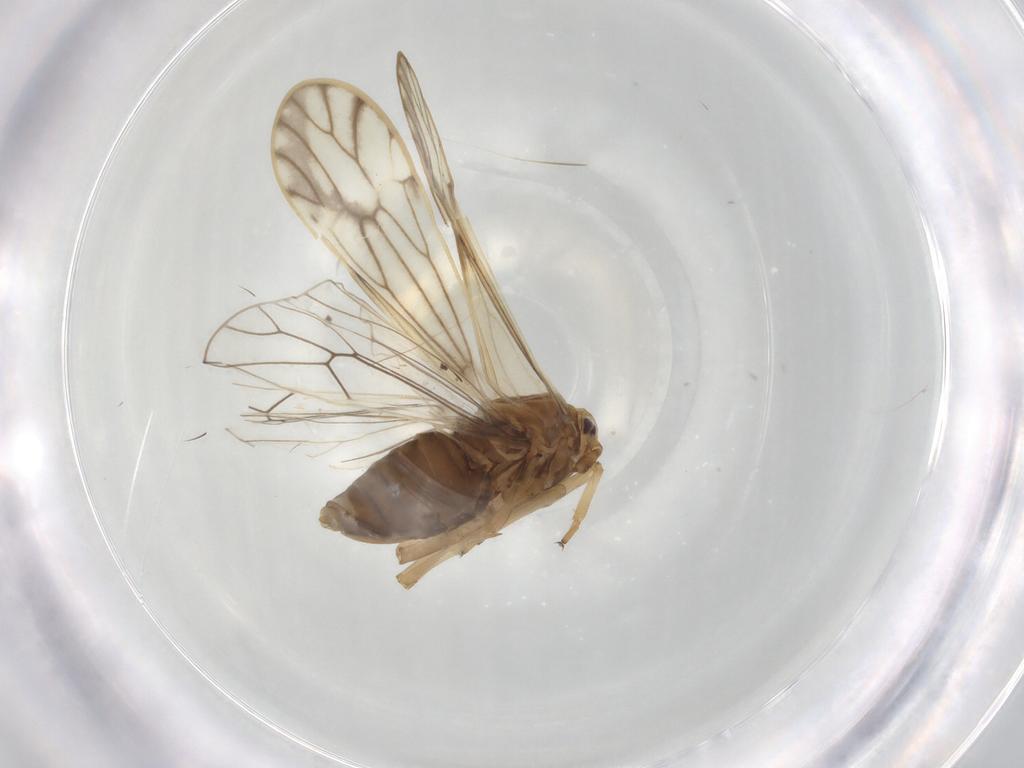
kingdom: Animalia
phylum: Arthropoda
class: Insecta
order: Hemiptera
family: Delphacidae
